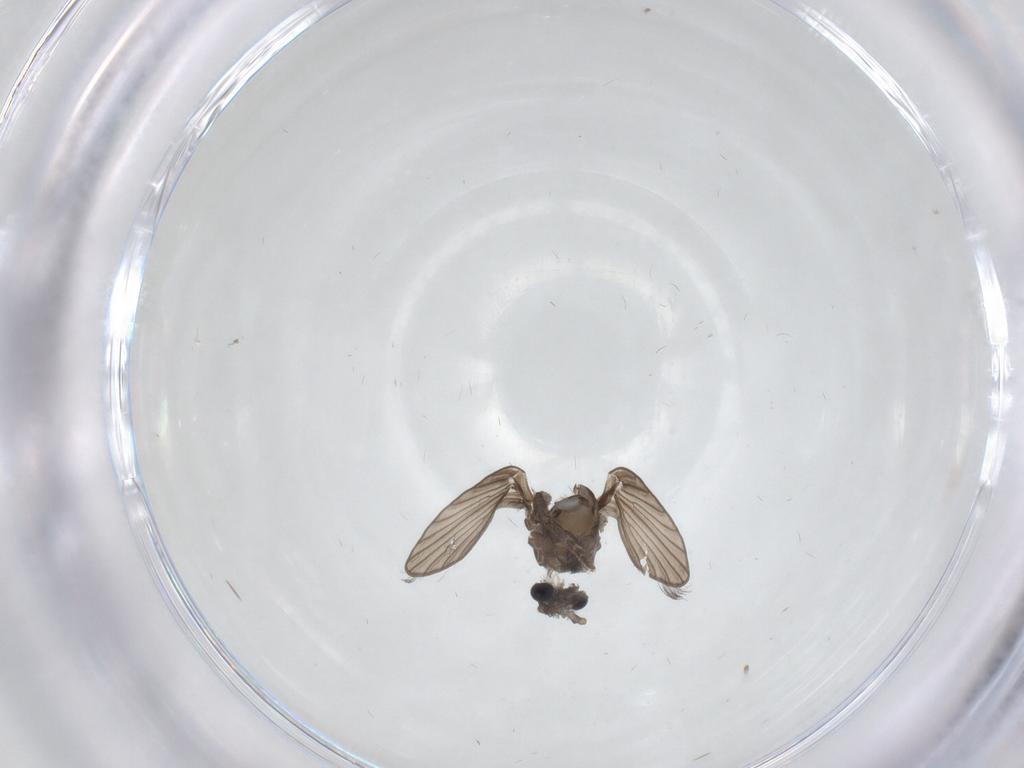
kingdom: Animalia
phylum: Arthropoda
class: Insecta
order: Diptera
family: Psychodidae
